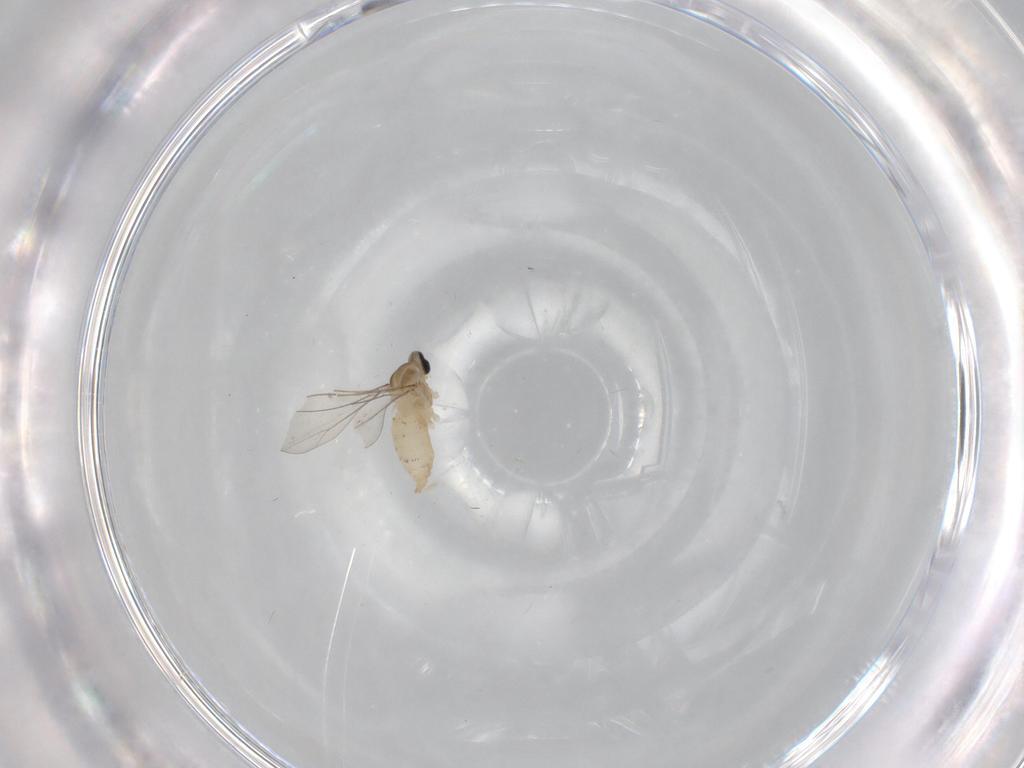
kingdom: Animalia
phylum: Arthropoda
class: Insecta
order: Diptera
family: Cecidomyiidae
